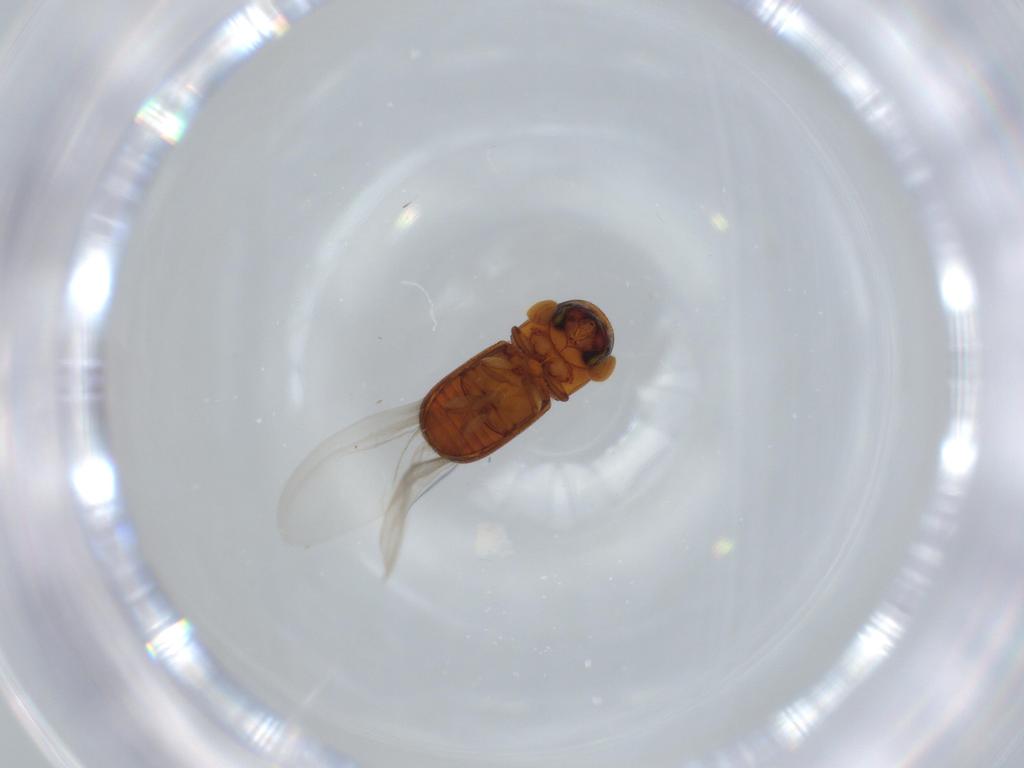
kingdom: Animalia
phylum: Arthropoda
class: Insecta
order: Coleoptera
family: Curculionidae
